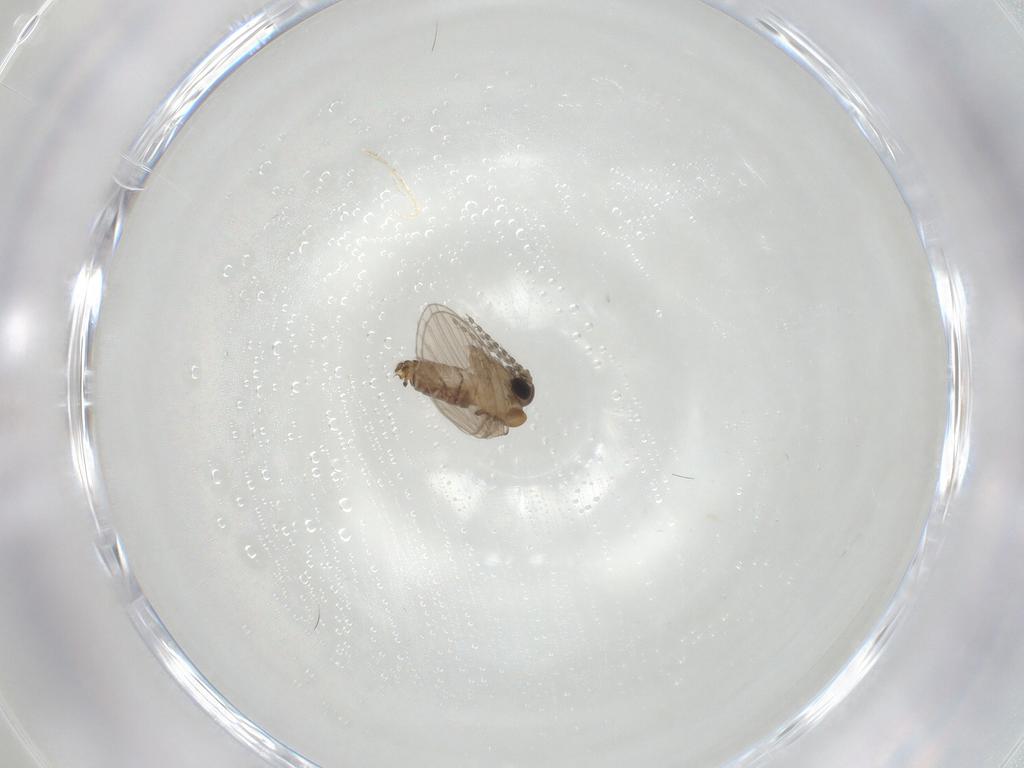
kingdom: Animalia
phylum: Arthropoda
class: Insecta
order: Diptera
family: Psychodidae
